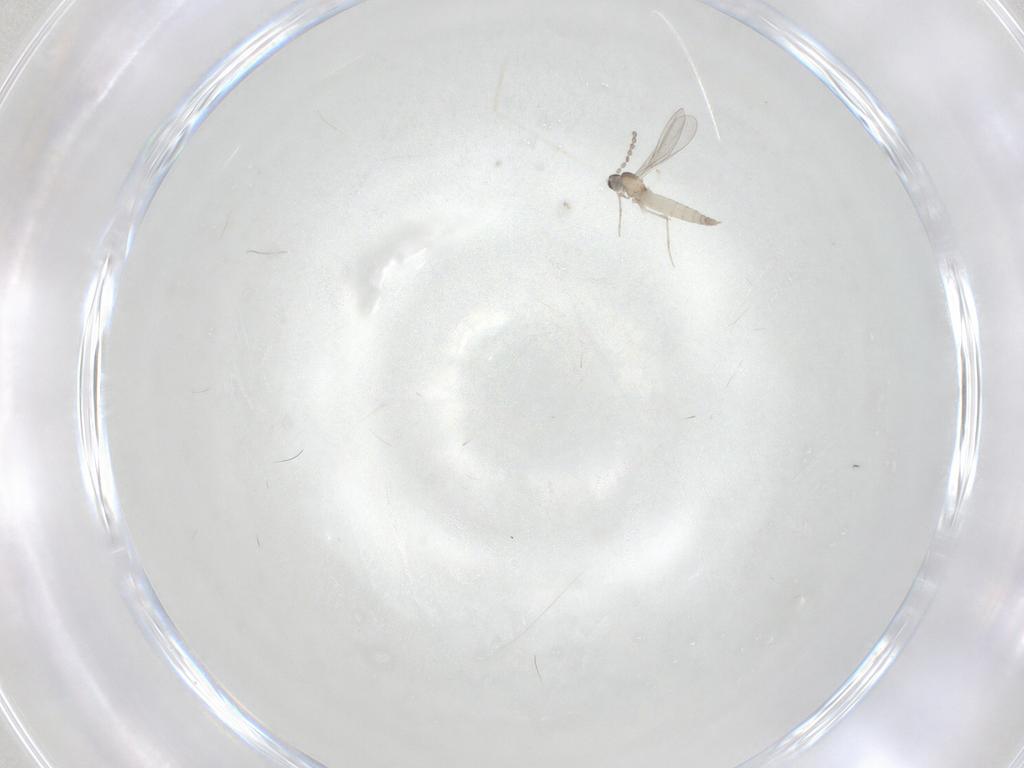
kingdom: Animalia
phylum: Arthropoda
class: Insecta
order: Diptera
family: Cecidomyiidae
